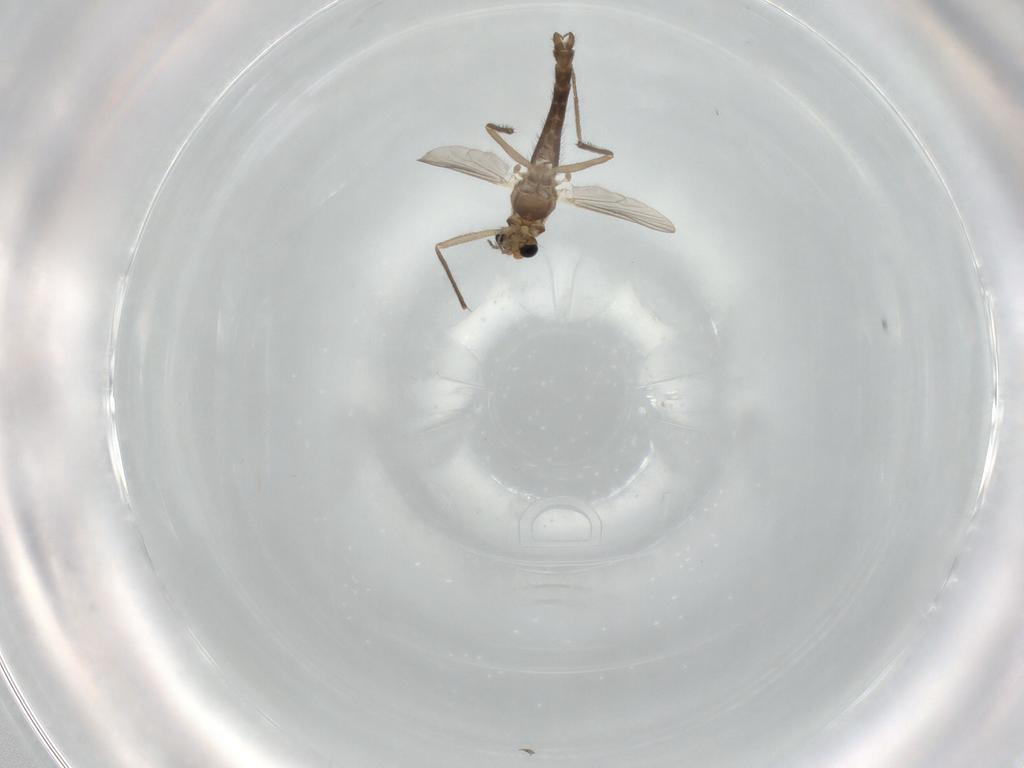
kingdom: Animalia
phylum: Arthropoda
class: Insecta
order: Diptera
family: Chironomidae
